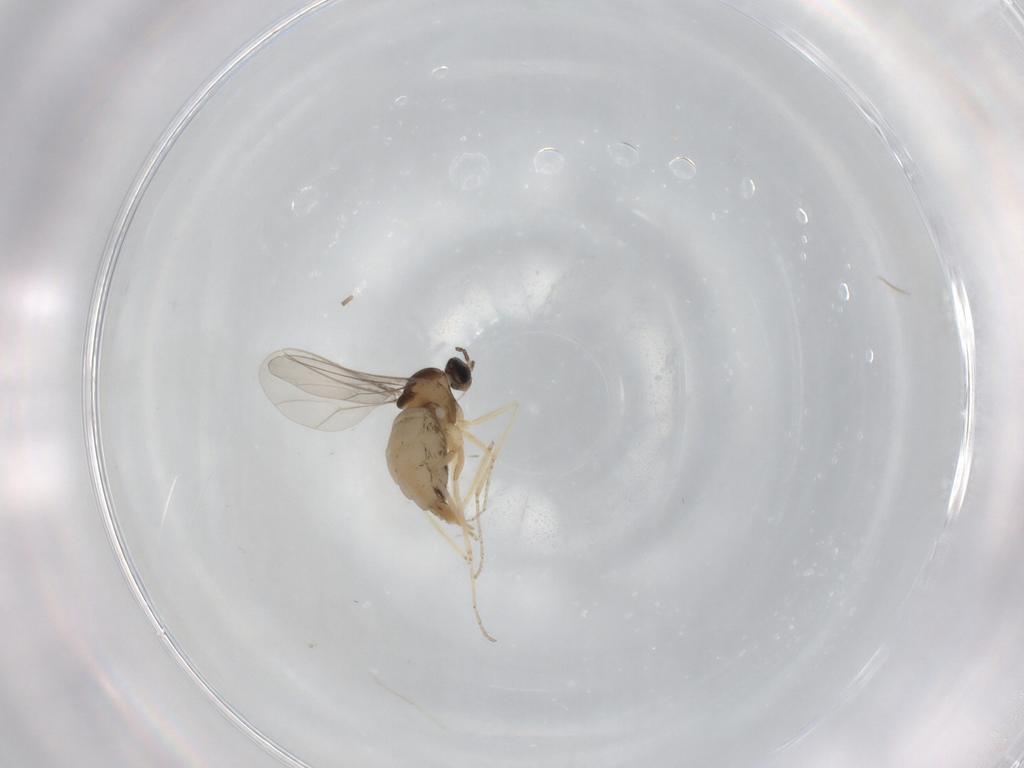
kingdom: Animalia
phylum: Arthropoda
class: Insecta
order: Diptera
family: Cecidomyiidae
